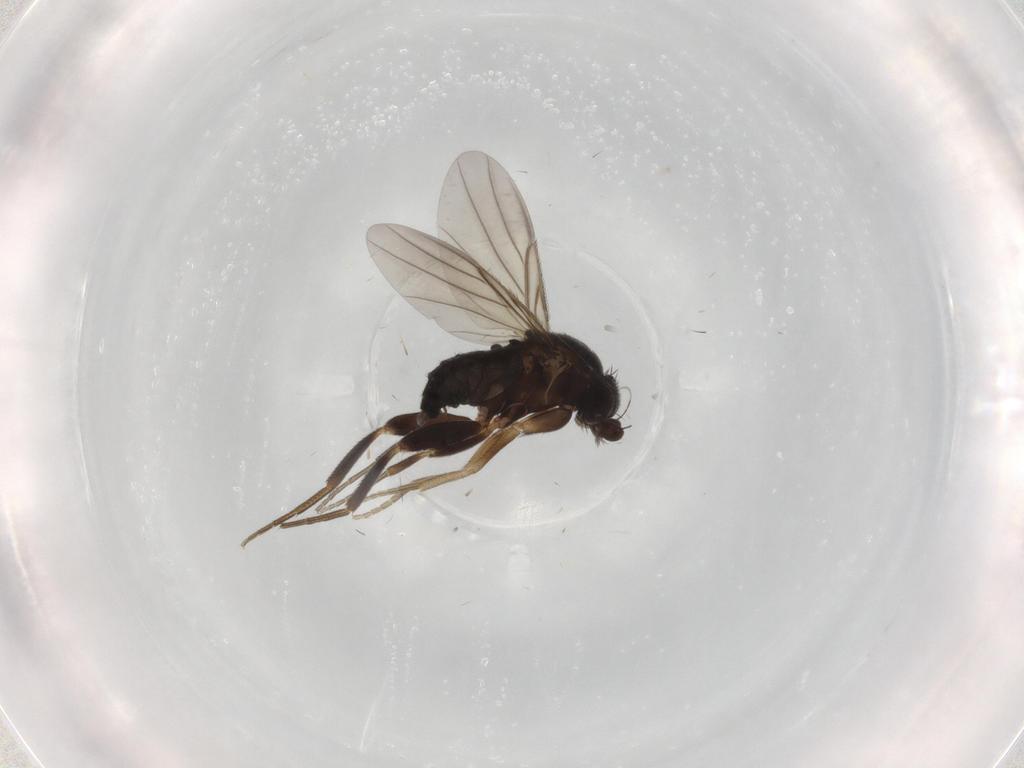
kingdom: Animalia
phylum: Arthropoda
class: Insecta
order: Diptera
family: Phoridae
